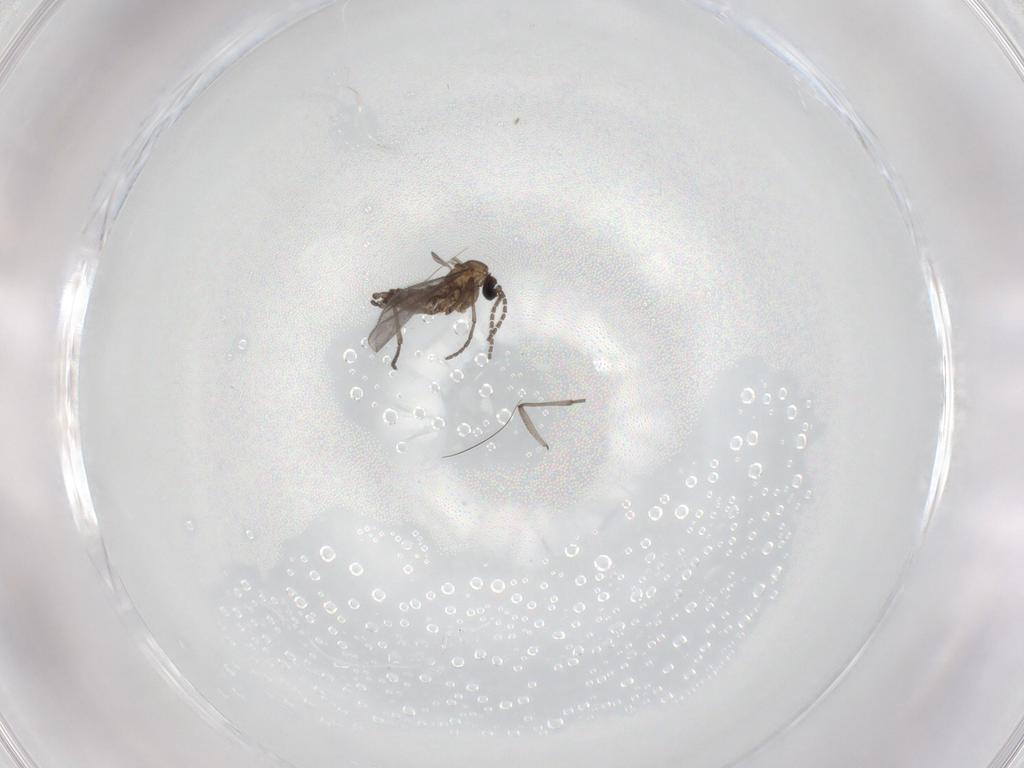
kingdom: Animalia
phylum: Arthropoda
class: Insecta
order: Diptera
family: Sciaridae
